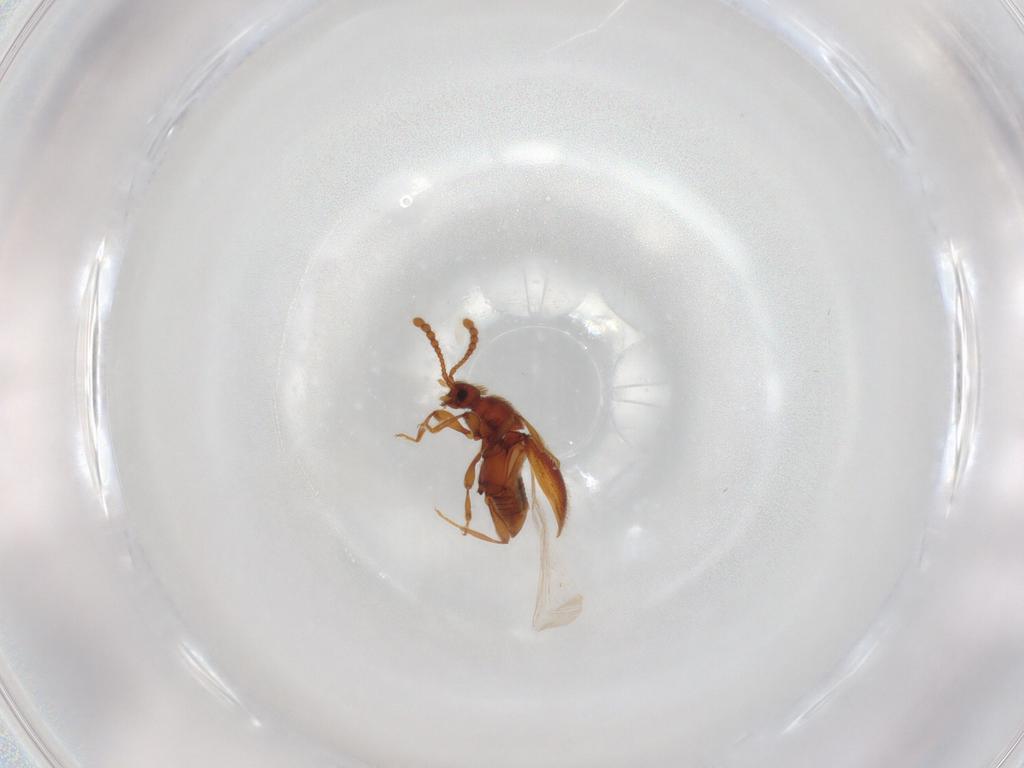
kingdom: Animalia
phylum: Arthropoda
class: Insecta
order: Coleoptera
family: Staphylinidae
